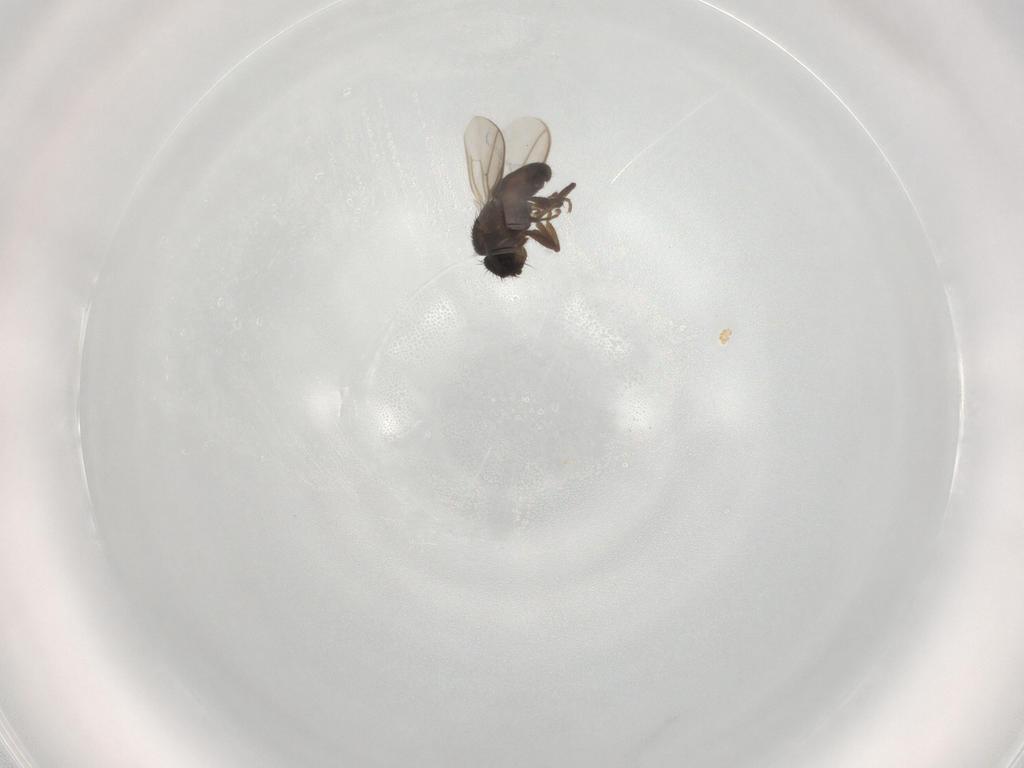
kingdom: Animalia
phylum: Arthropoda
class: Insecta
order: Diptera
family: Sphaeroceridae
